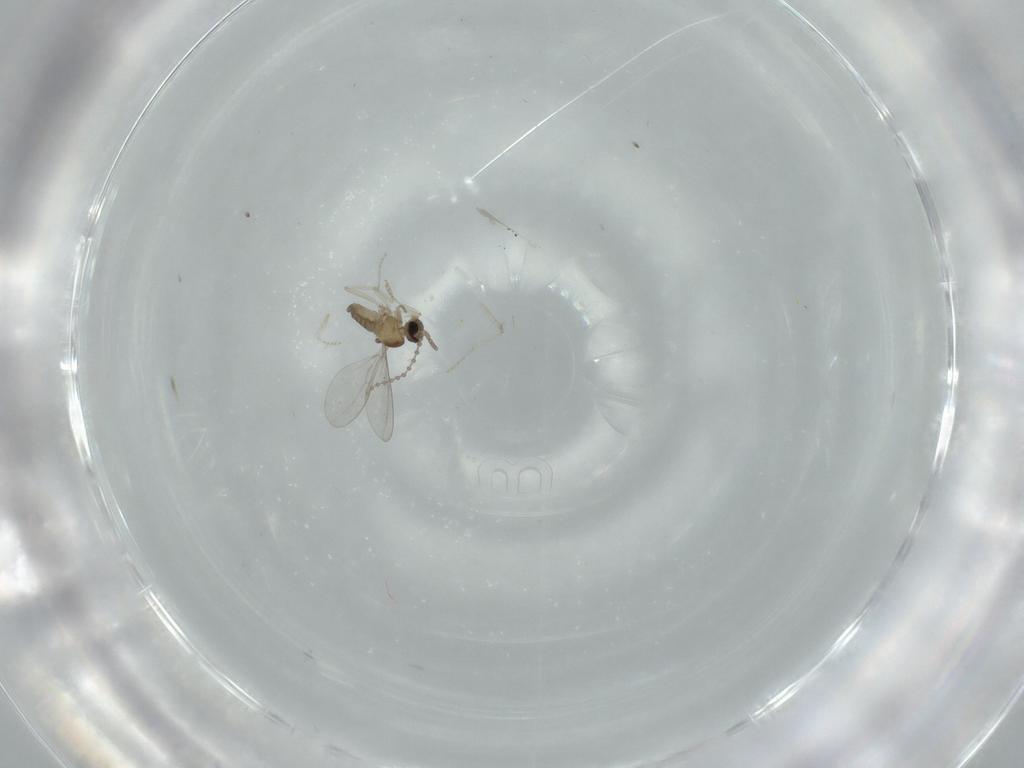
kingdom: Animalia
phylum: Arthropoda
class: Insecta
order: Diptera
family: Cecidomyiidae
